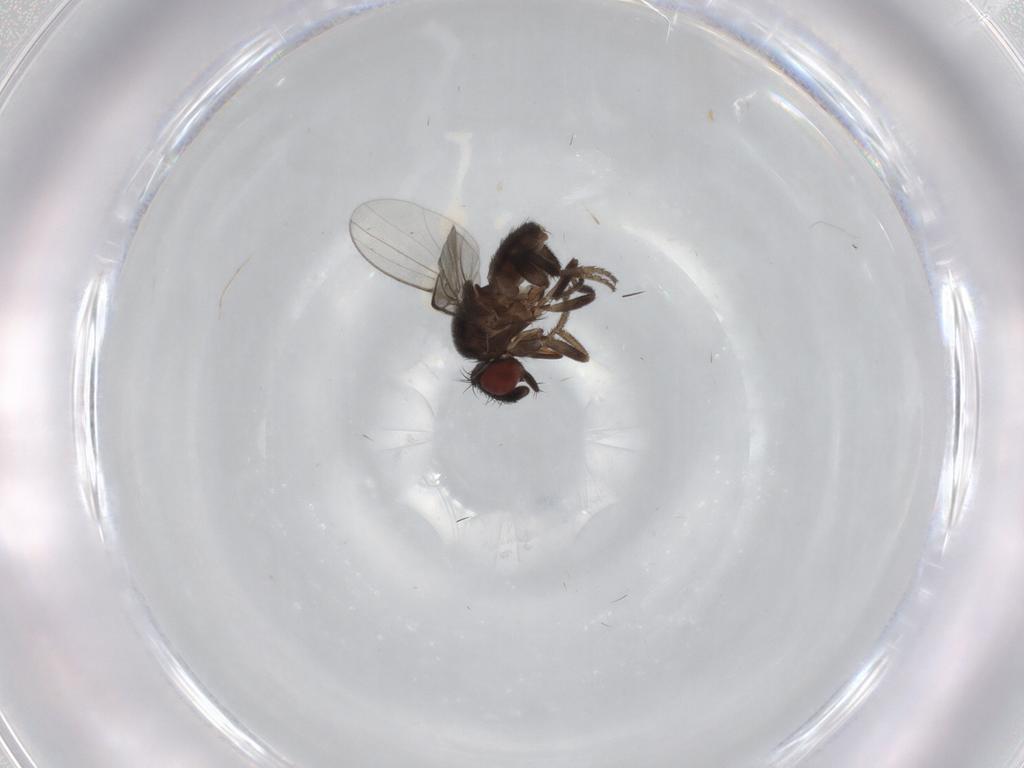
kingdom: Animalia
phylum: Arthropoda
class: Insecta
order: Diptera
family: Milichiidae
